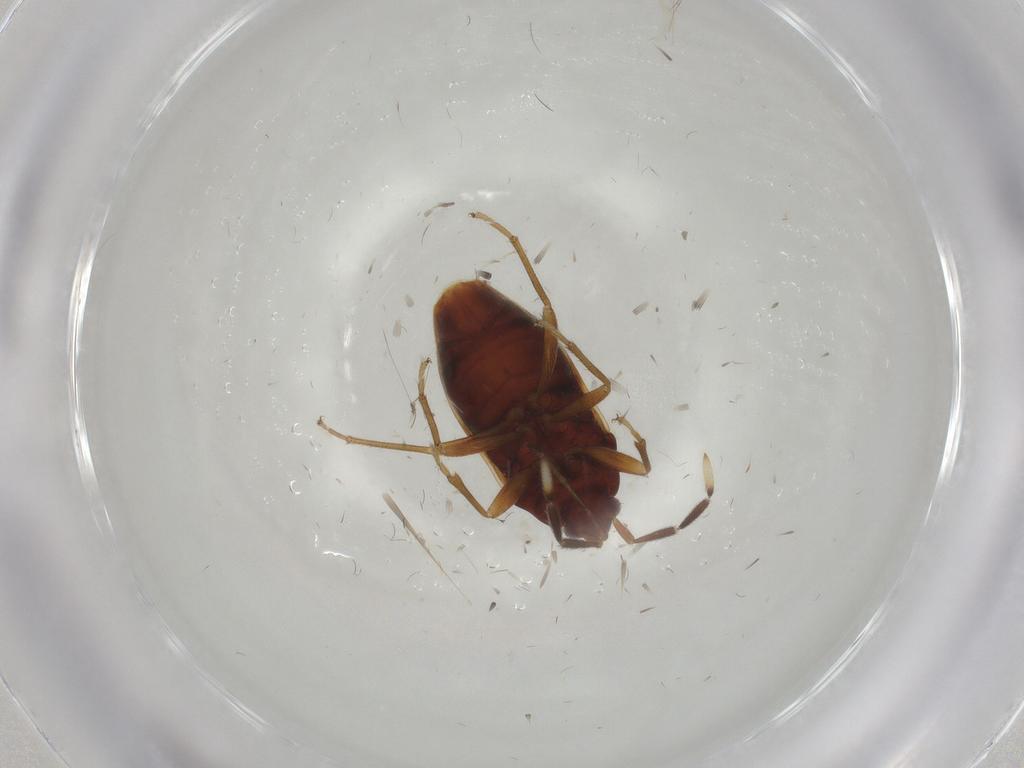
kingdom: Animalia
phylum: Arthropoda
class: Insecta
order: Hemiptera
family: Rhyparochromidae
